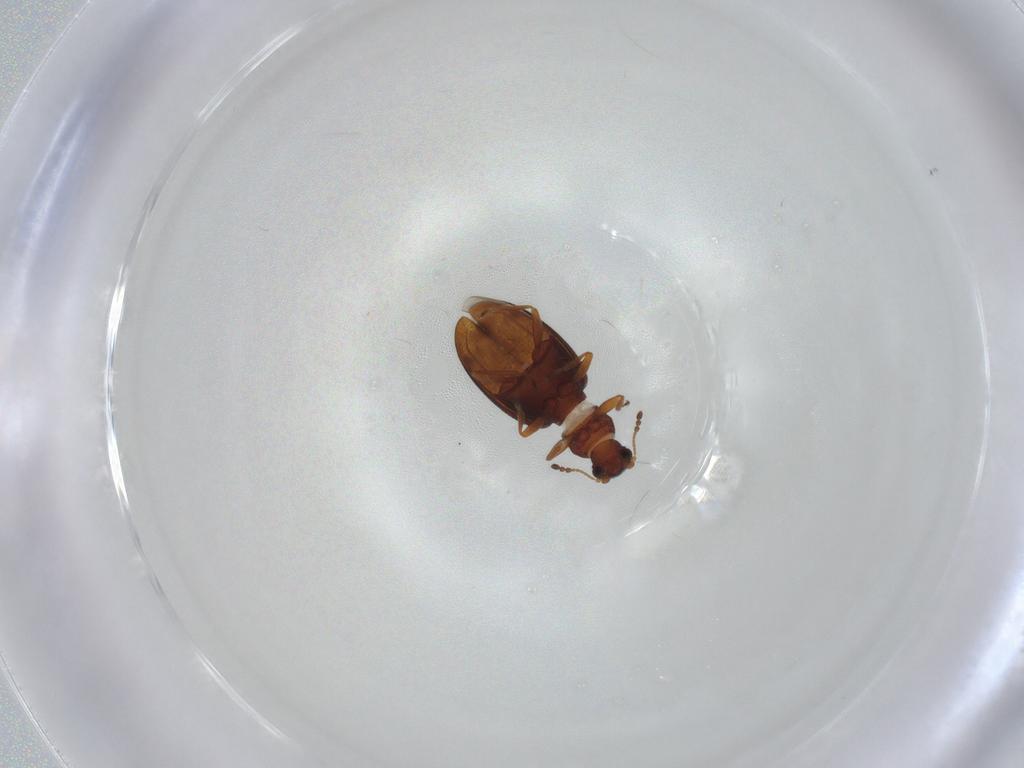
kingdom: Animalia
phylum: Arthropoda
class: Insecta
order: Coleoptera
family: Latridiidae
